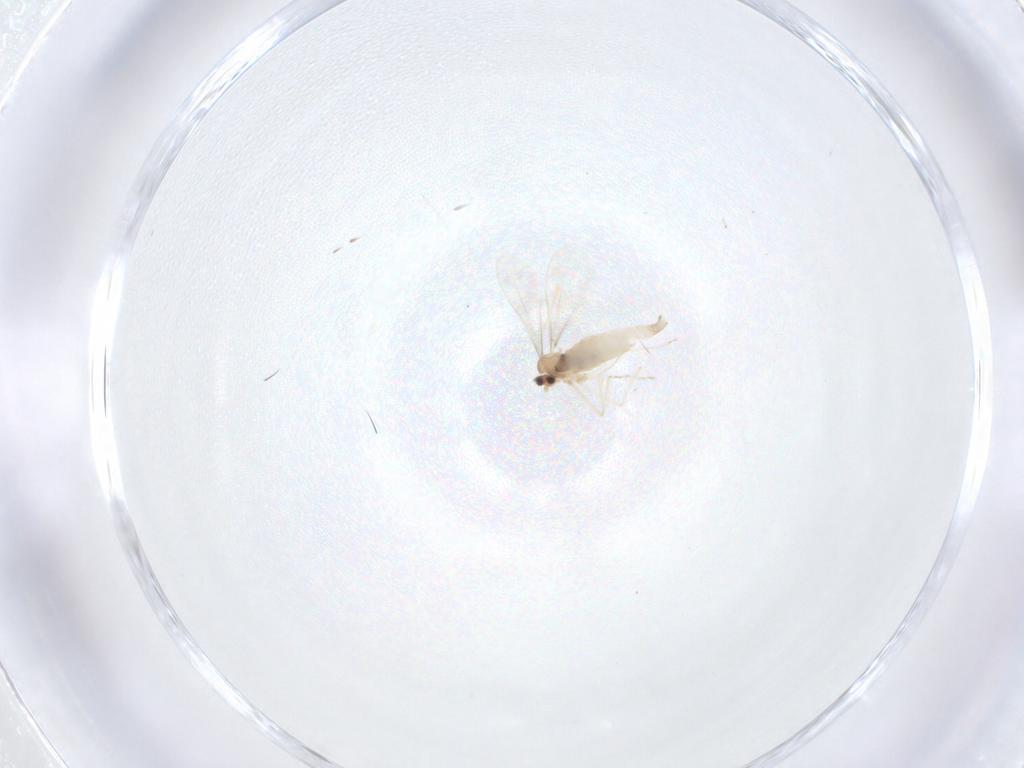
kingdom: Animalia
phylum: Arthropoda
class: Insecta
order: Diptera
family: Cecidomyiidae
